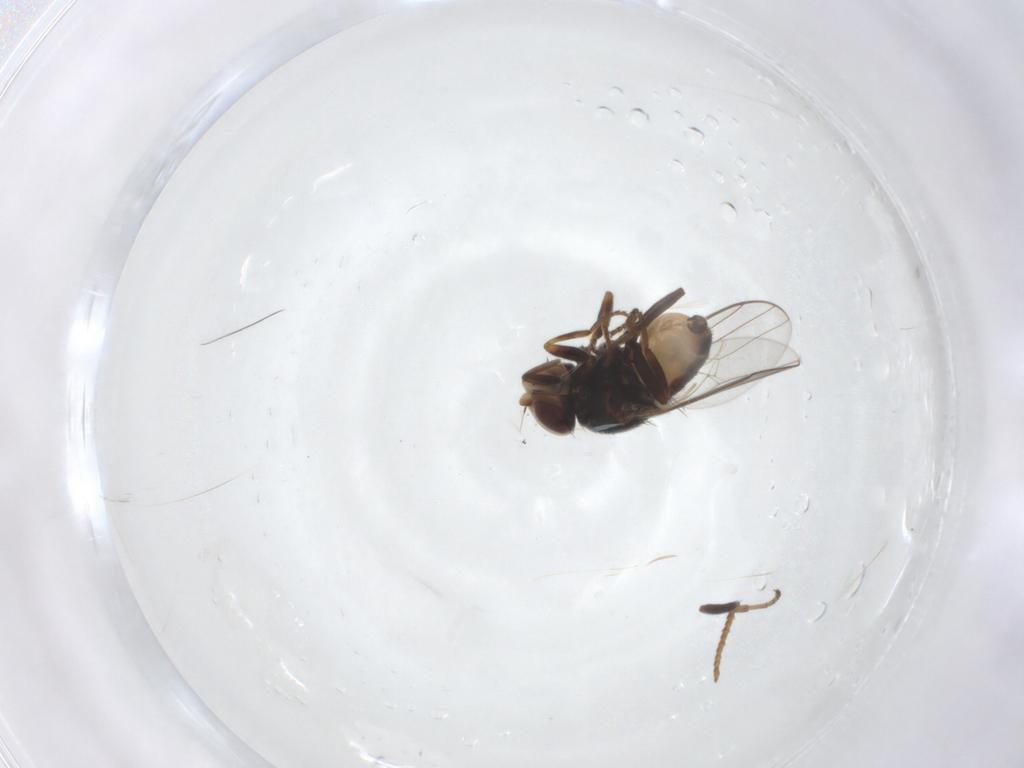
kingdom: Animalia
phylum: Arthropoda
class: Insecta
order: Diptera
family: Chloropidae
